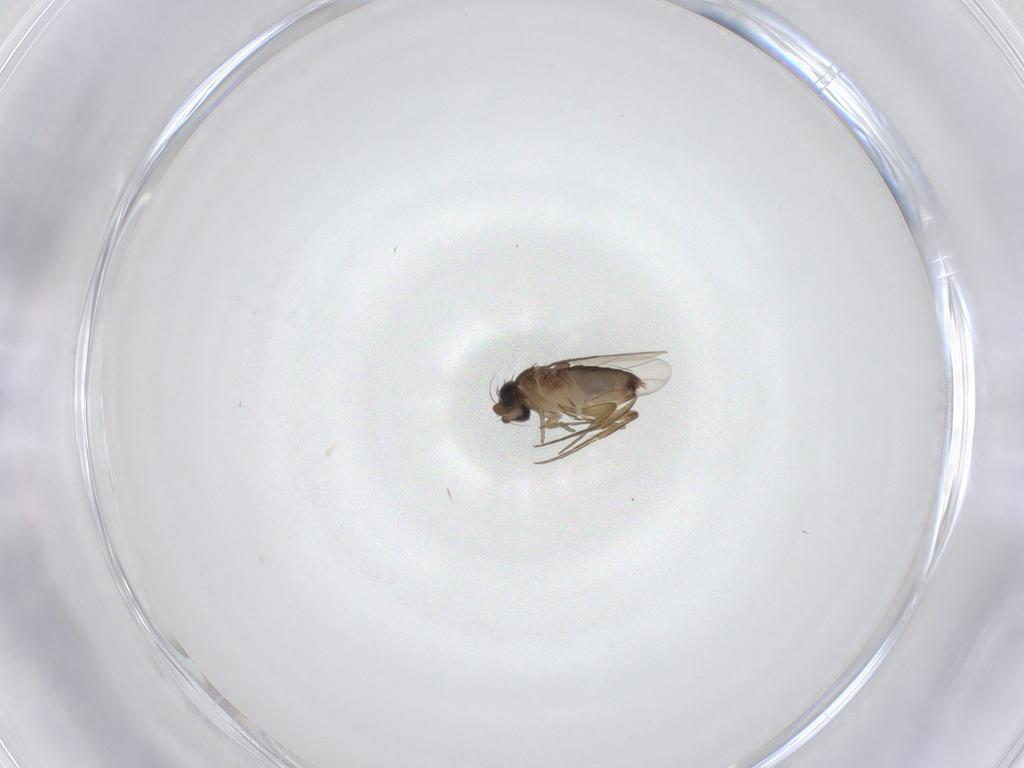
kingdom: Animalia
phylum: Arthropoda
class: Insecta
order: Diptera
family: Phoridae
